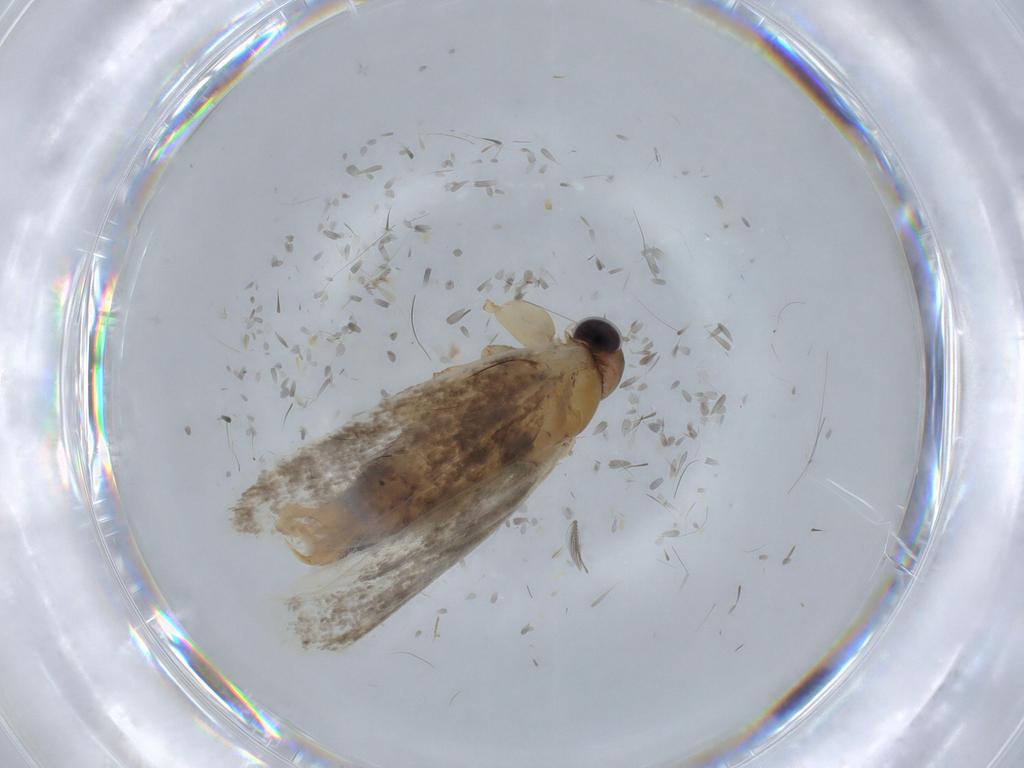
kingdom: Animalia
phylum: Arthropoda
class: Insecta
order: Lepidoptera
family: Tineidae
